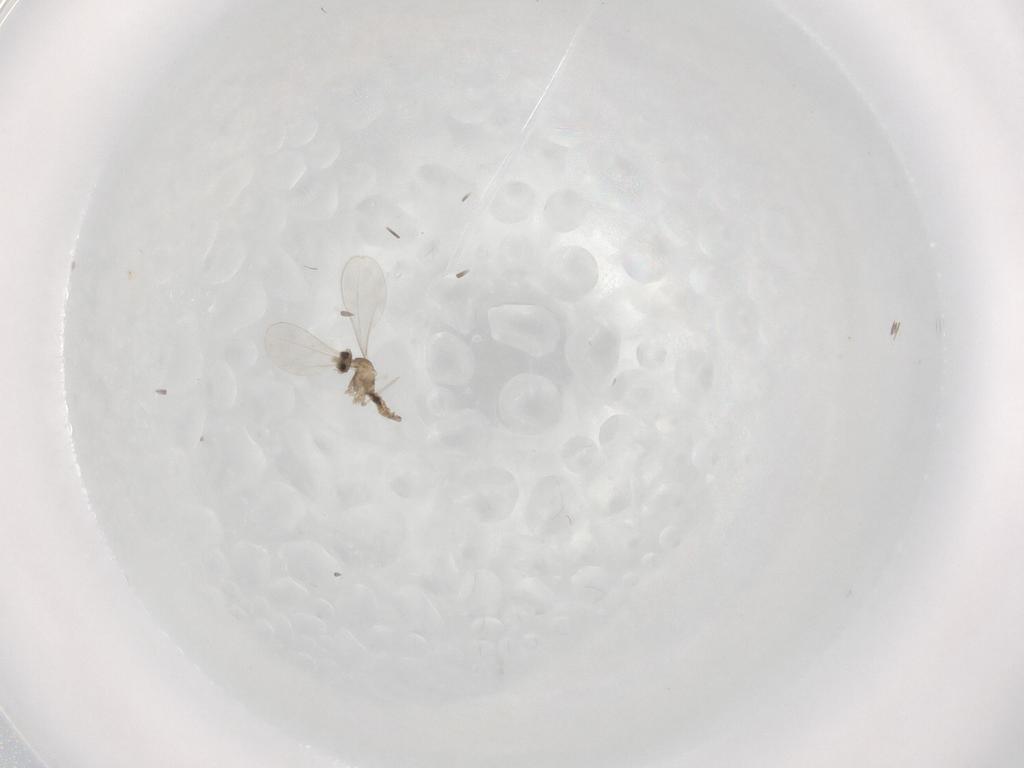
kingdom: Animalia
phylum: Arthropoda
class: Insecta
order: Diptera
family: Cecidomyiidae
